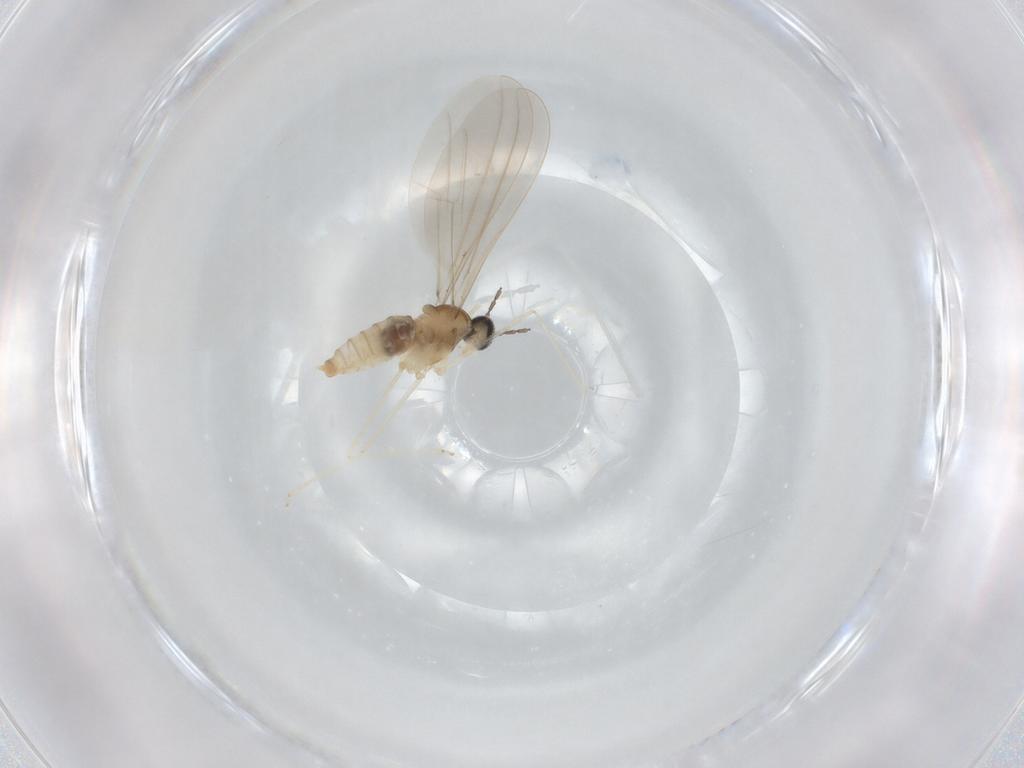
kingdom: Animalia
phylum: Arthropoda
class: Insecta
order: Diptera
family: Cecidomyiidae
